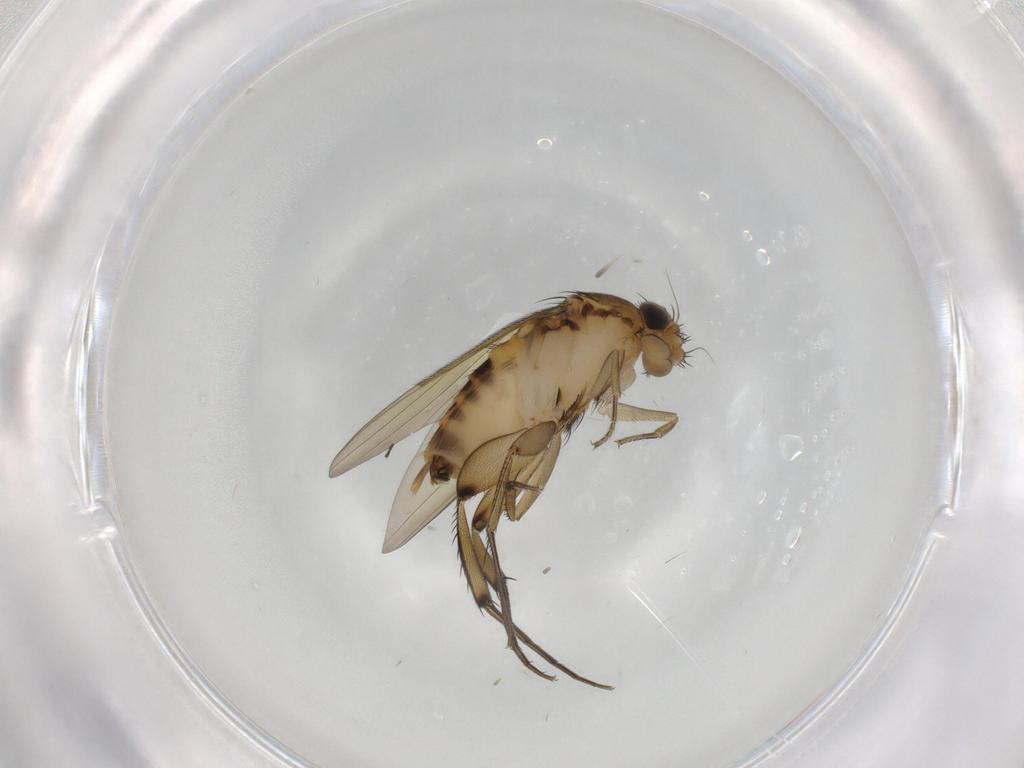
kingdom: Animalia
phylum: Arthropoda
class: Insecta
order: Diptera
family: Phoridae
